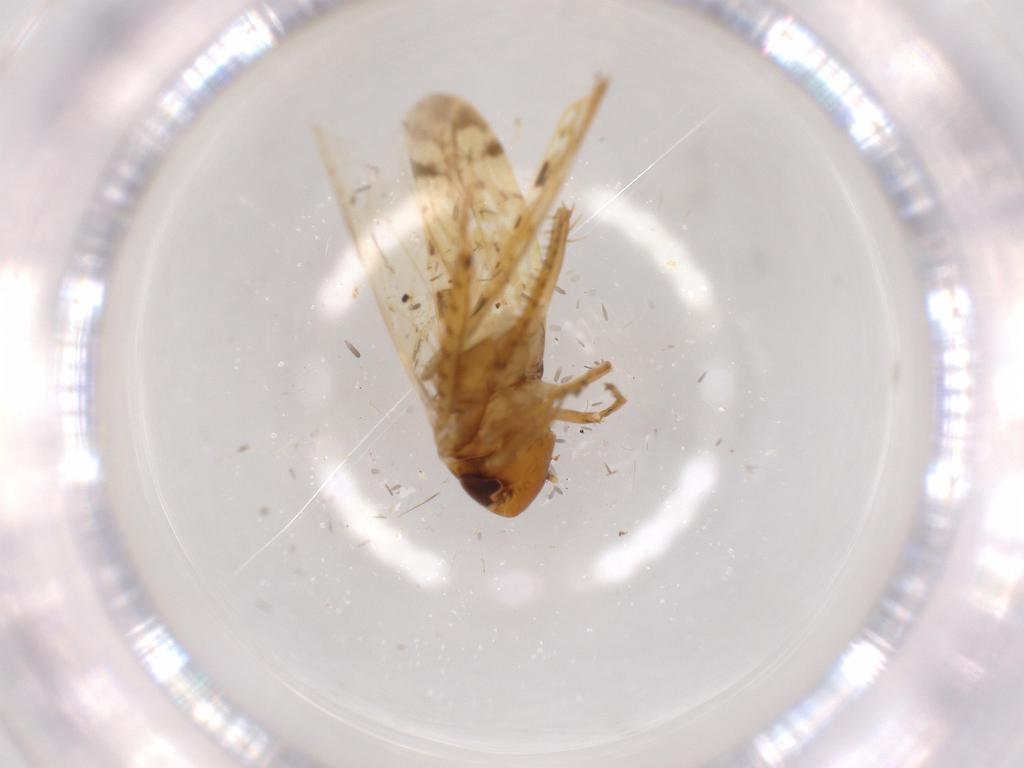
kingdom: Animalia
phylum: Arthropoda
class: Insecta
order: Hemiptera
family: Cicadellidae
